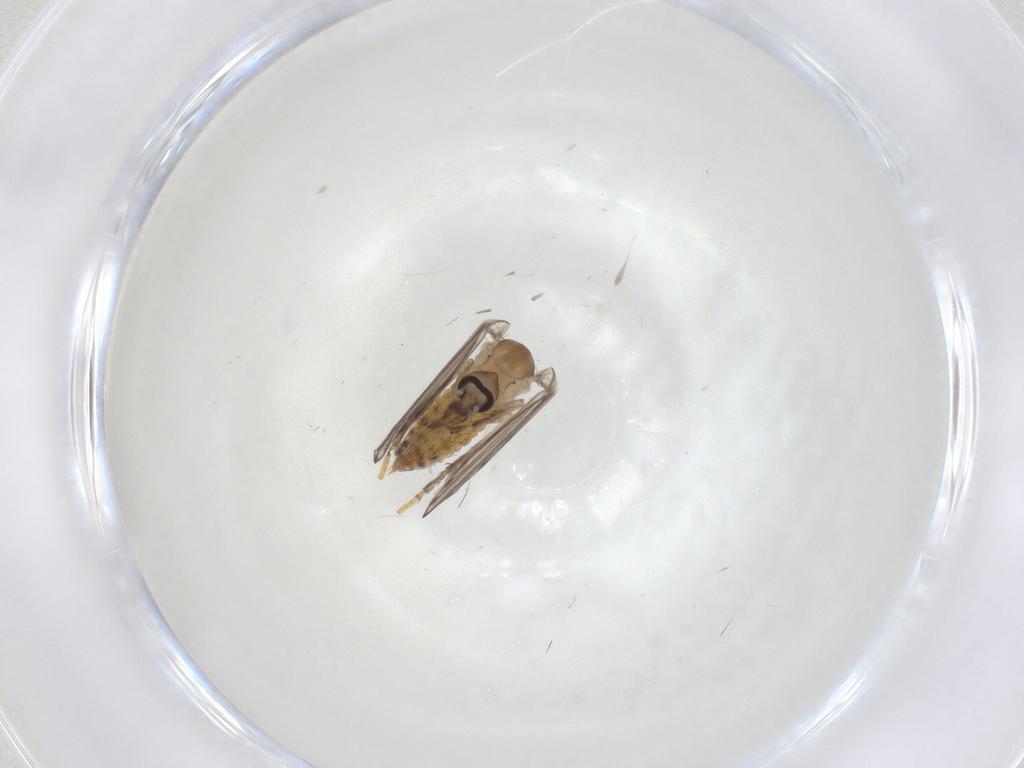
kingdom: Animalia
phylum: Arthropoda
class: Insecta
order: Diptera
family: Psychodidae
